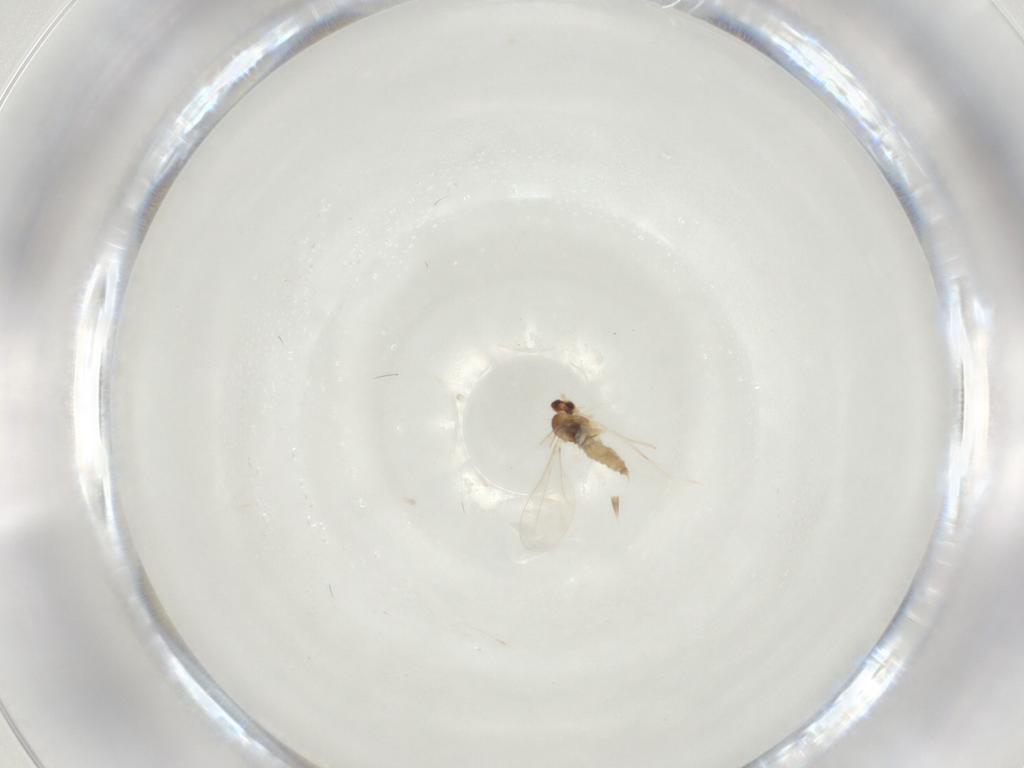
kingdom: Animalia
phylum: Arthropoda
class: Insecta
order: Diptera
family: Cecidomyiidae
